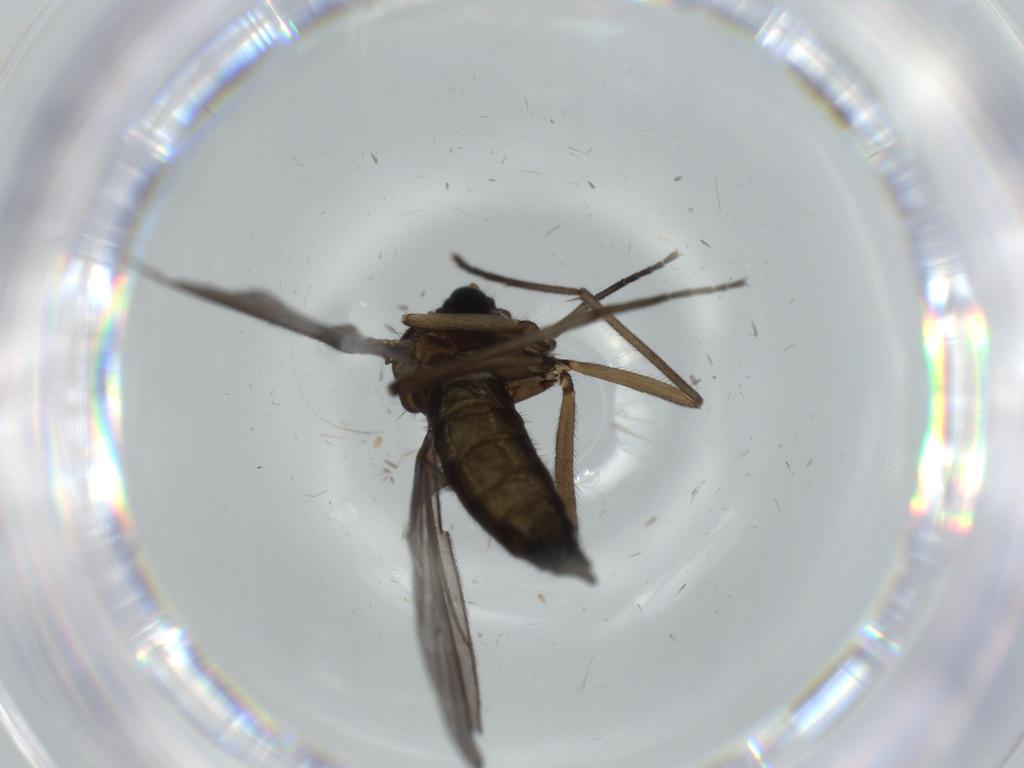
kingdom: Animalia
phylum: Arthropoda
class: Insecta
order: Diptera
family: Sciaridae
